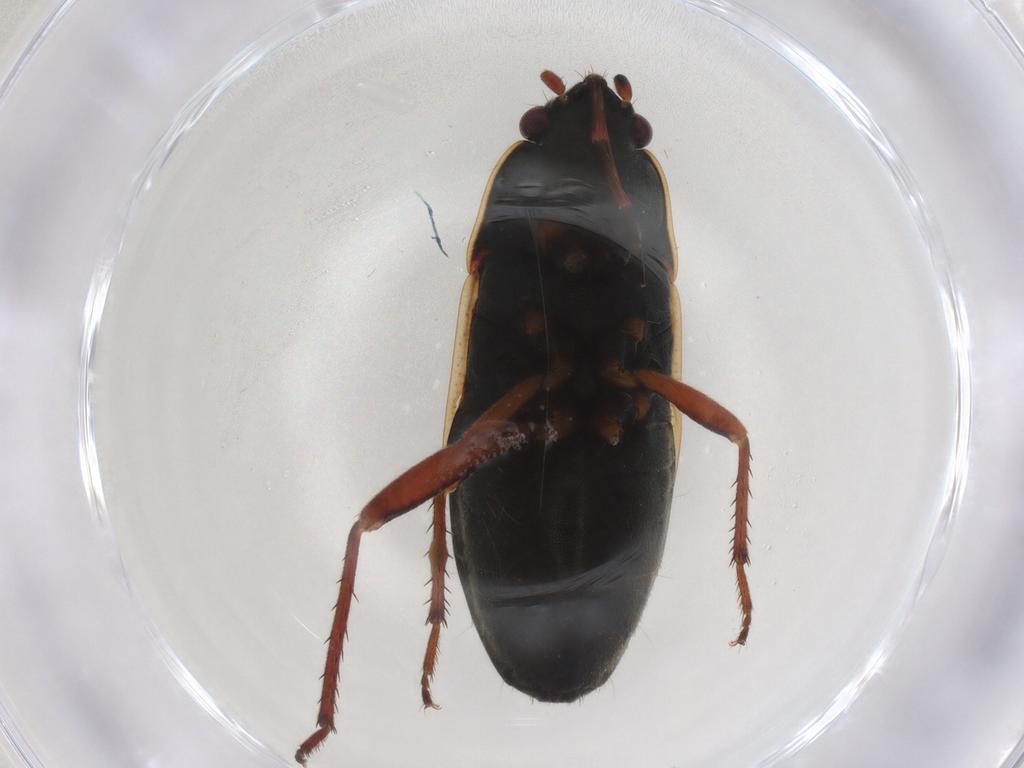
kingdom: Animalia
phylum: Arthropoda
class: Insecta
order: Hemiptera
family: Rhyparochromidae
